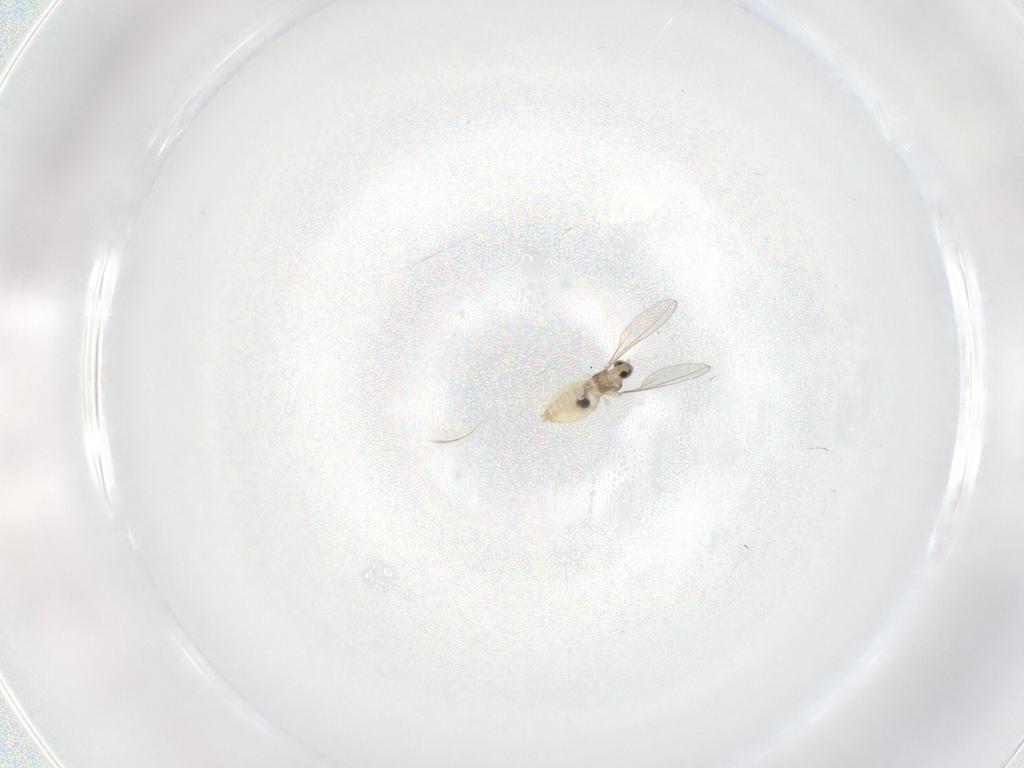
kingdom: Animalia
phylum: Arthropoda
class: Insecta
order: Diptera
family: Cecidomyiidae
